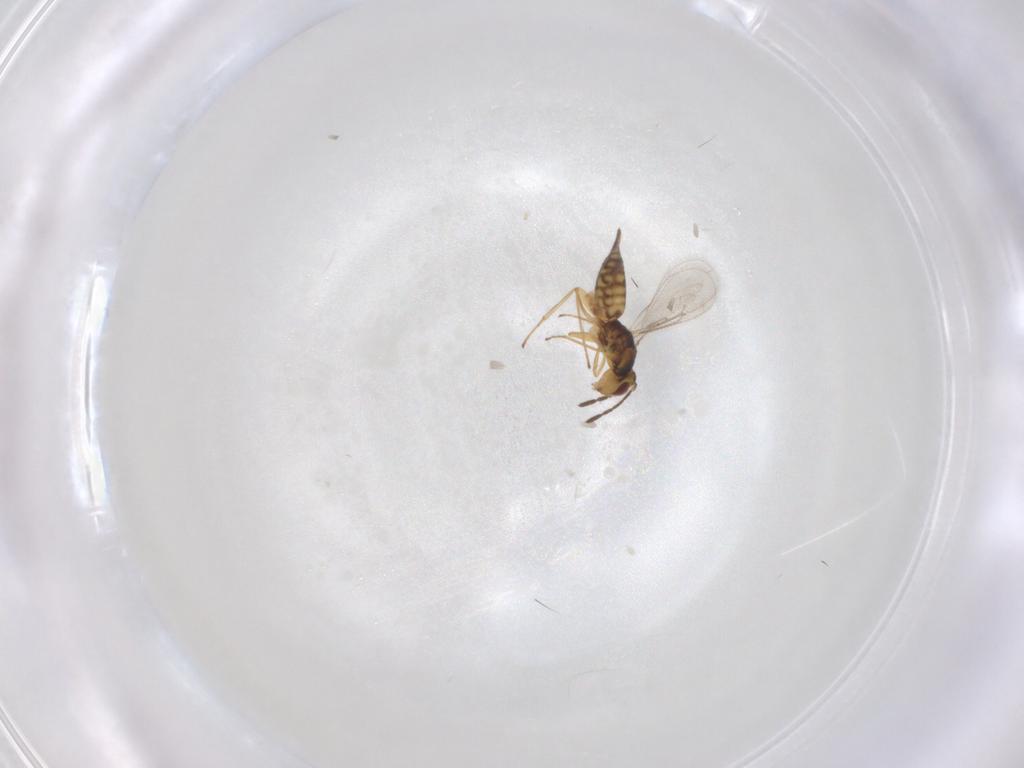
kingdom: Animalia
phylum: Arthropoda
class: Insecta
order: Hymenoptera
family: Eulophidae
